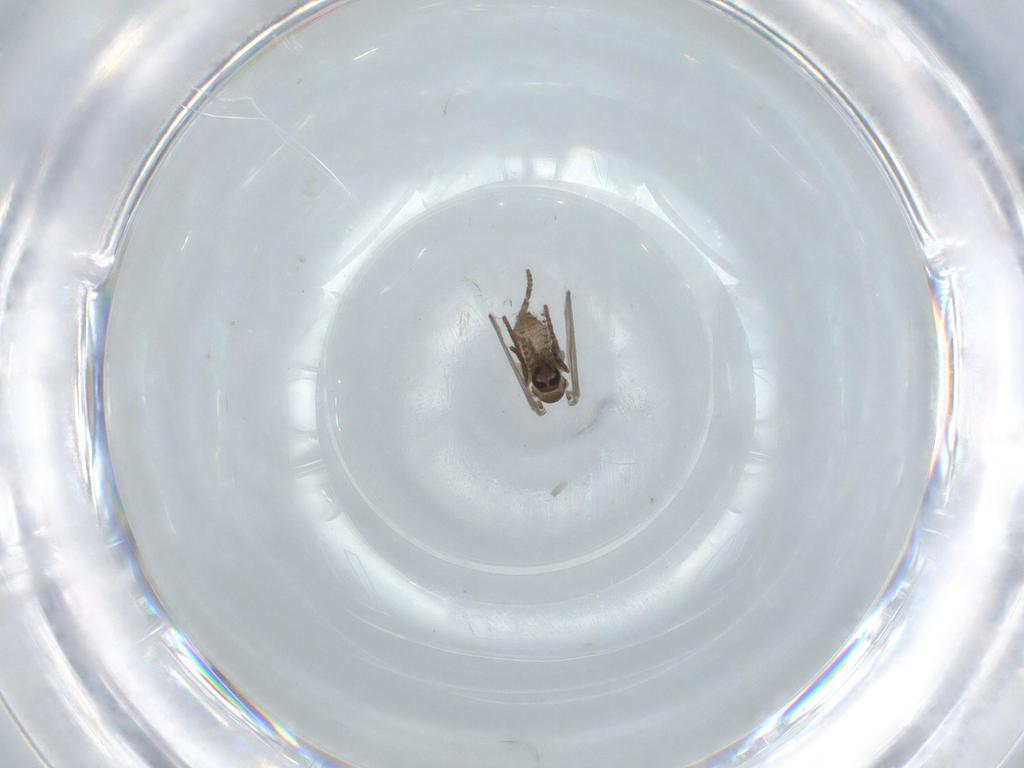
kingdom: Animalia
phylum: Arthropoda
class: Insecta
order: Diptera
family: Psychodidae
